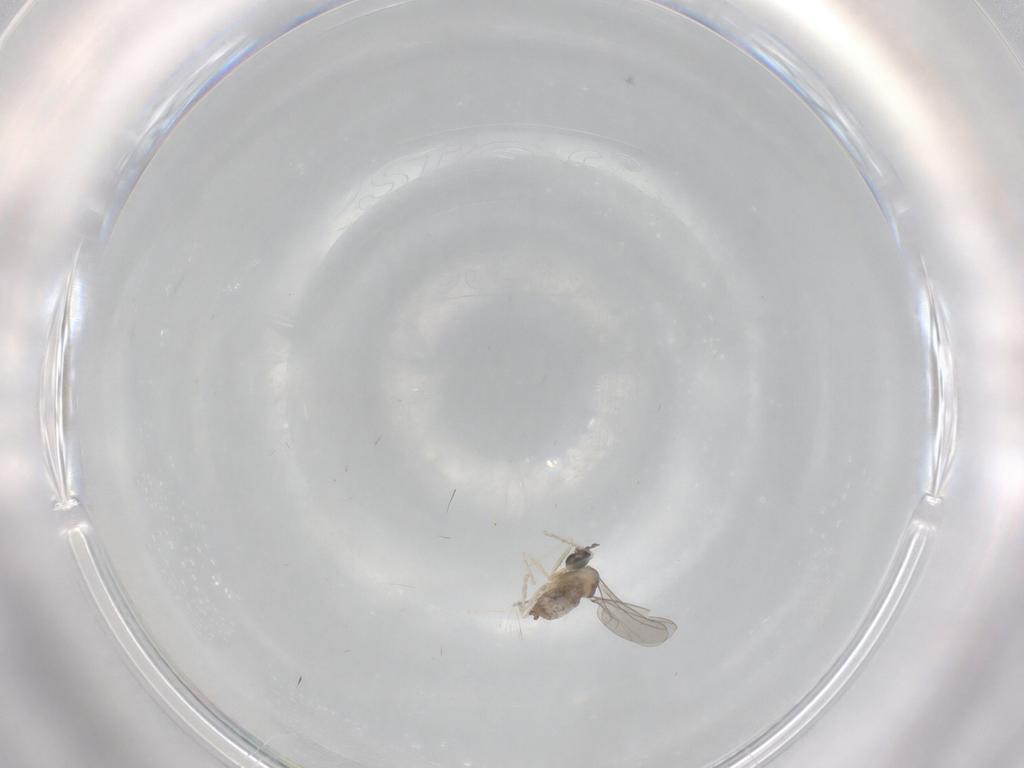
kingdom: Animalia
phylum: Arthropoda
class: Insecta
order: Diptera
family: Cecidomyiidae
